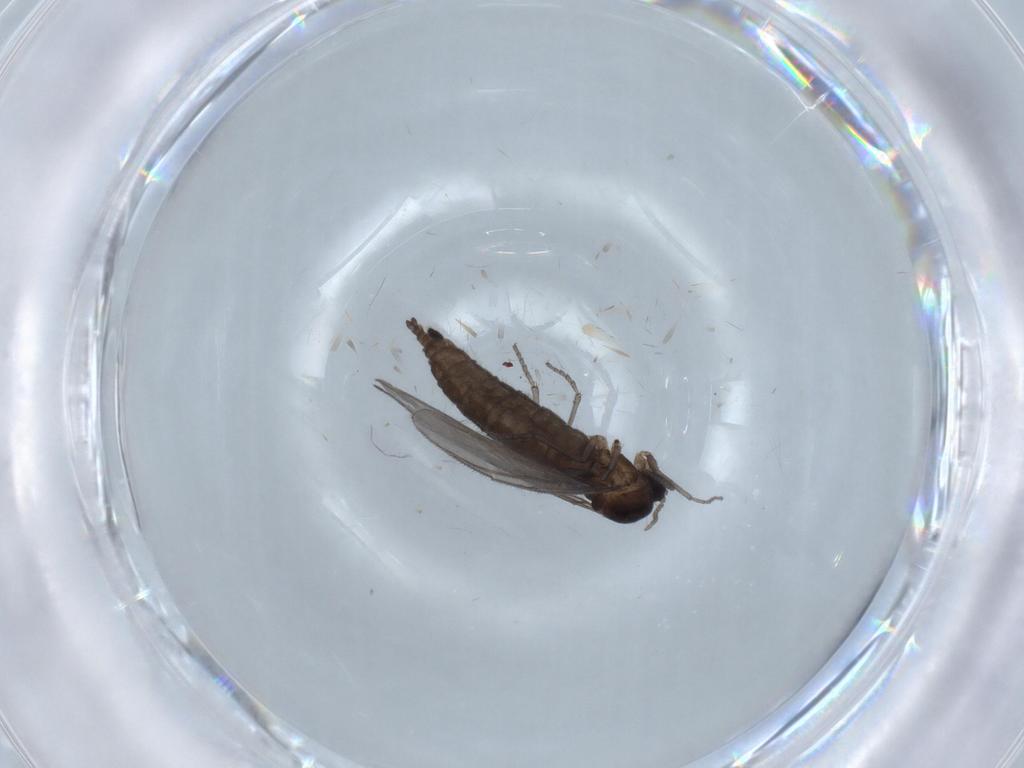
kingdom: Animalia
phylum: Arthropoda
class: Insecta
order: Diptera
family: Sciaridae
